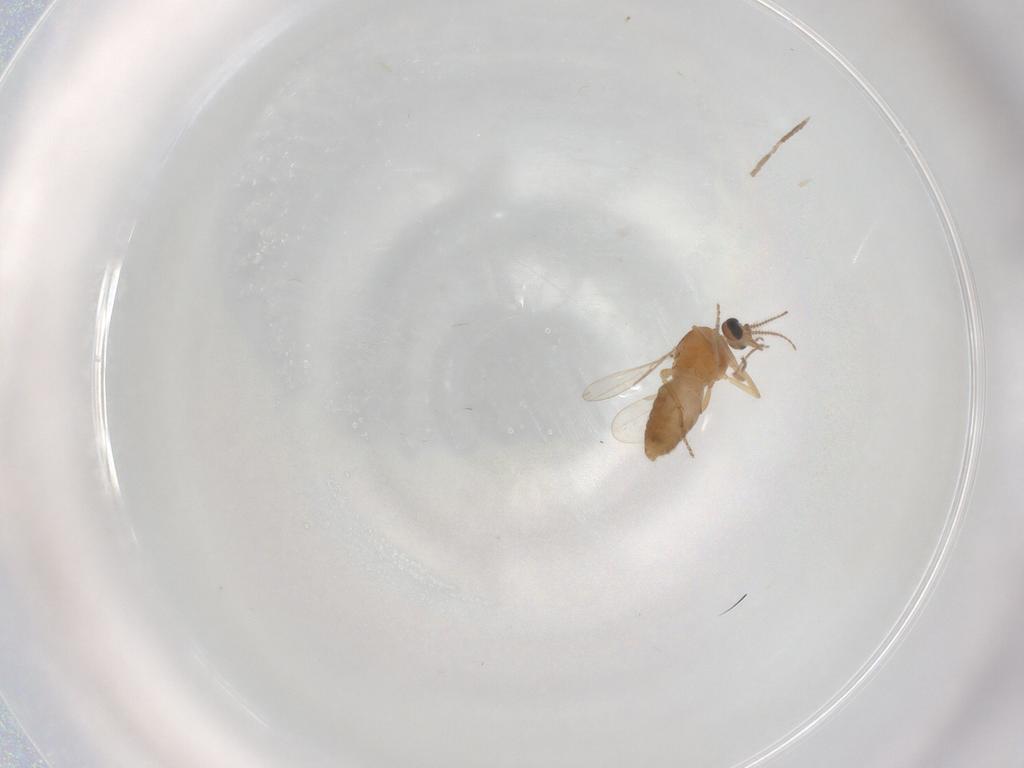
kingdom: Animalia
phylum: Arthropoda
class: Insecta
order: Diptera
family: Ceratopogonidae
